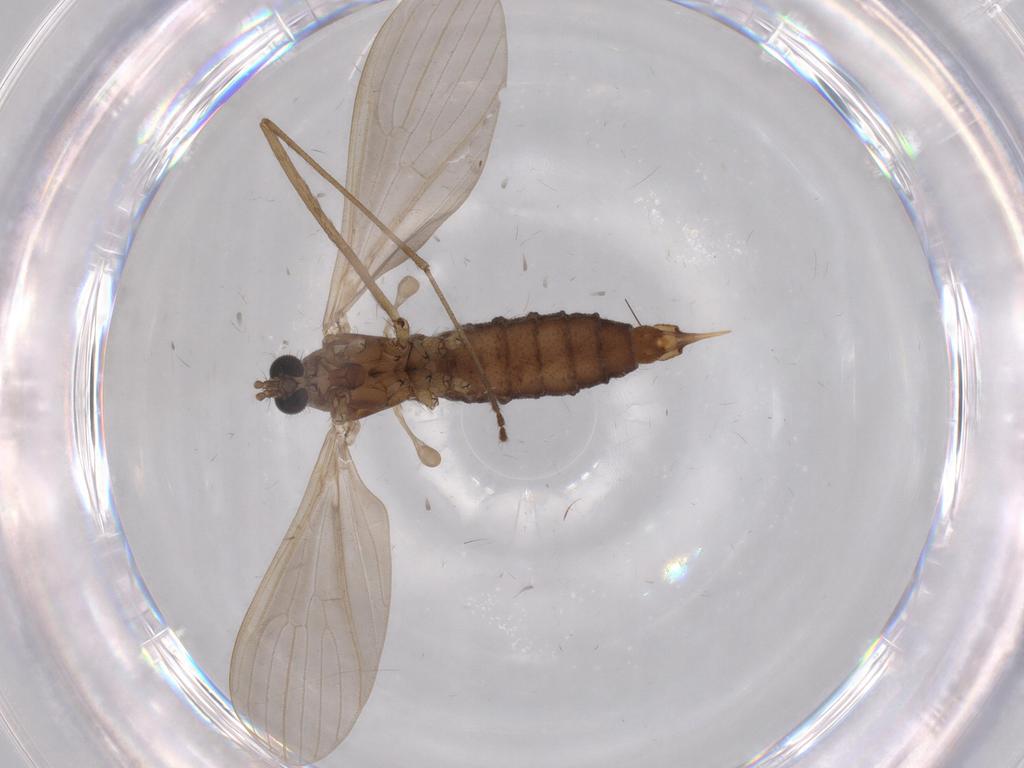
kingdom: Animalia
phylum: Arthropoda
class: Insecta
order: Diptera
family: Limoniidae
